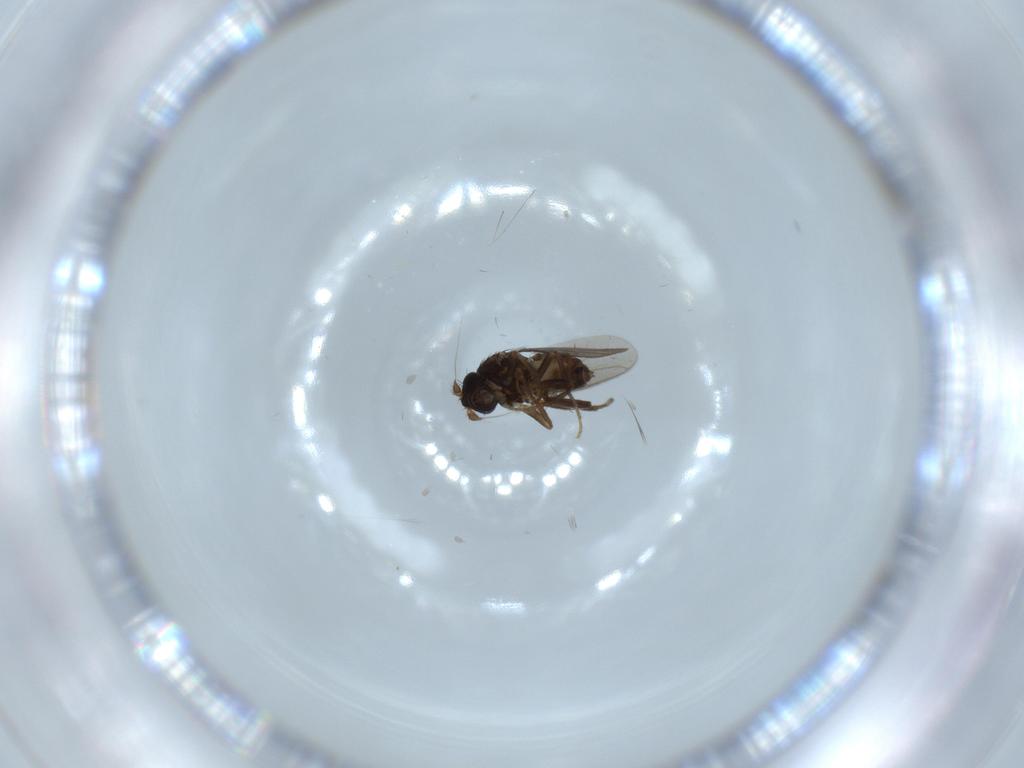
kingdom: Animalia
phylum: Arthropoda
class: Insecta
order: Diptera
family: Sphaeroceridae
